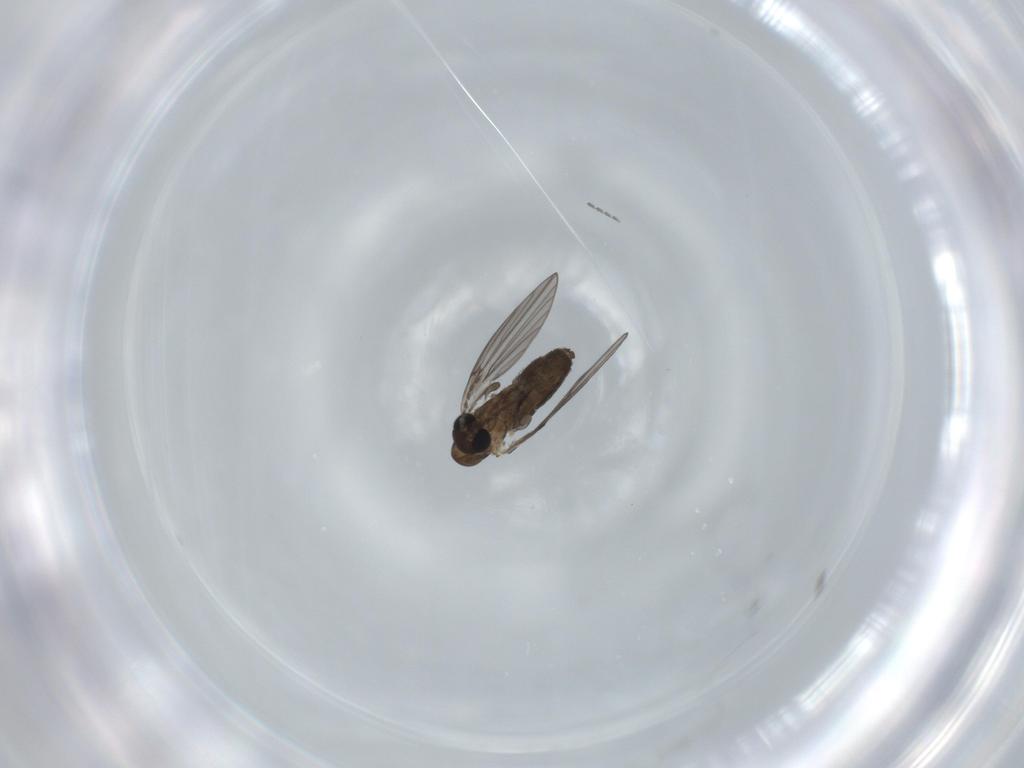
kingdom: Animalia
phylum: Arthropoda
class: Insecta
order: Diptera
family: Psychodidae
